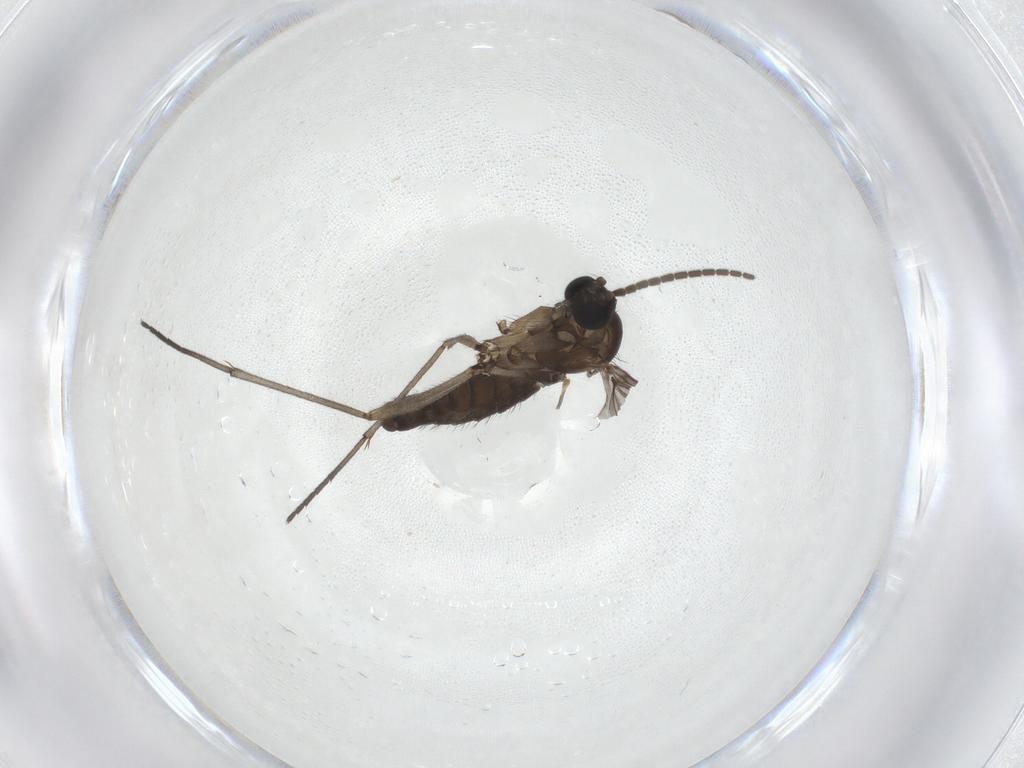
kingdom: Animalia
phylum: Arthropoda
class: Insecta
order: Diptera
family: Sciaridae
